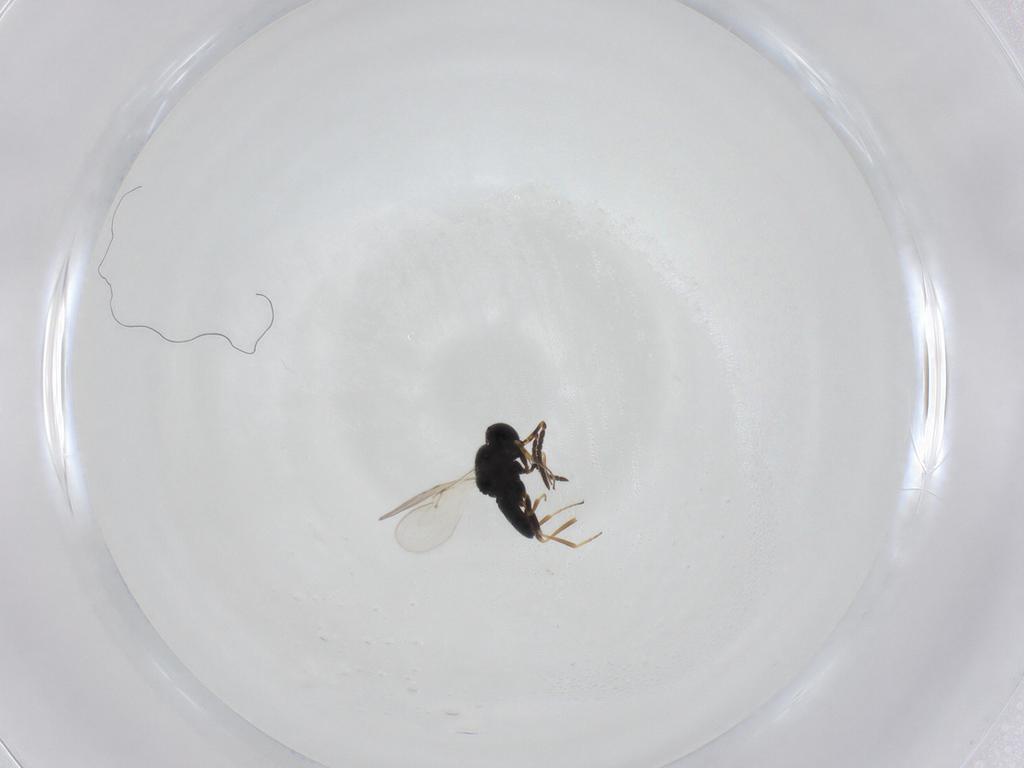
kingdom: Animalia
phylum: Arthropoda
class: Insecta
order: Hymenoptera
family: Scelionidae
